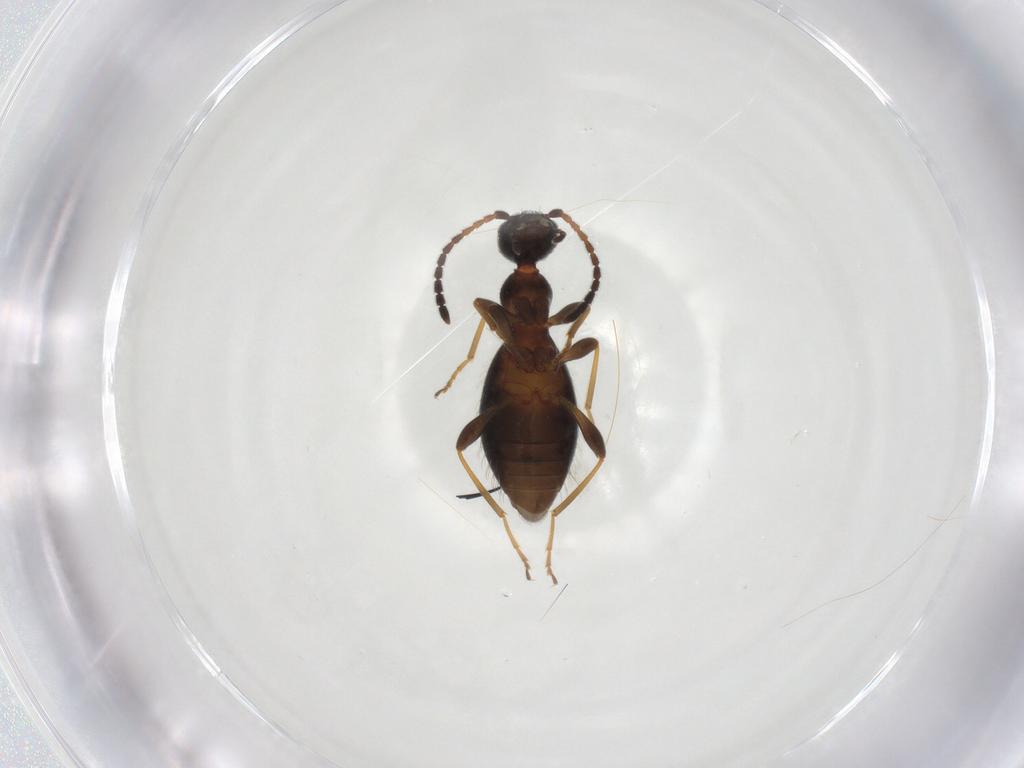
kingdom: Animalia
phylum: Arthropoda
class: Insecta
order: Coleoptera
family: Anthicidae
